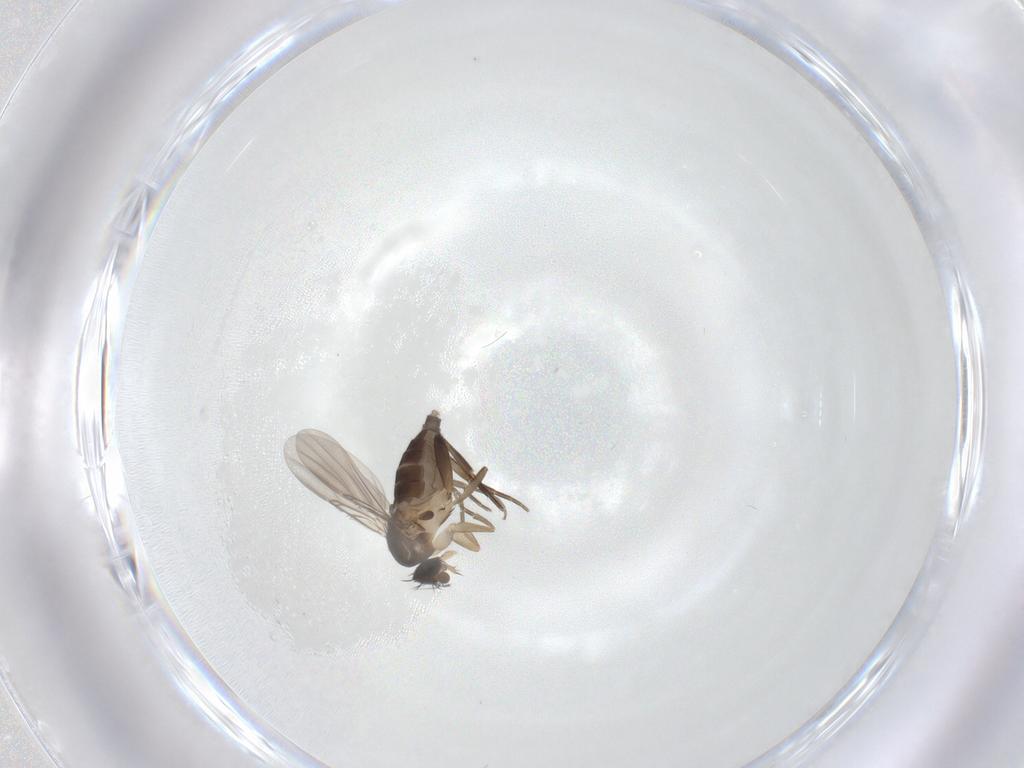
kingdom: Animalia
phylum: Arthropoda
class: Insecta
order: Diptera
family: Phoridae
